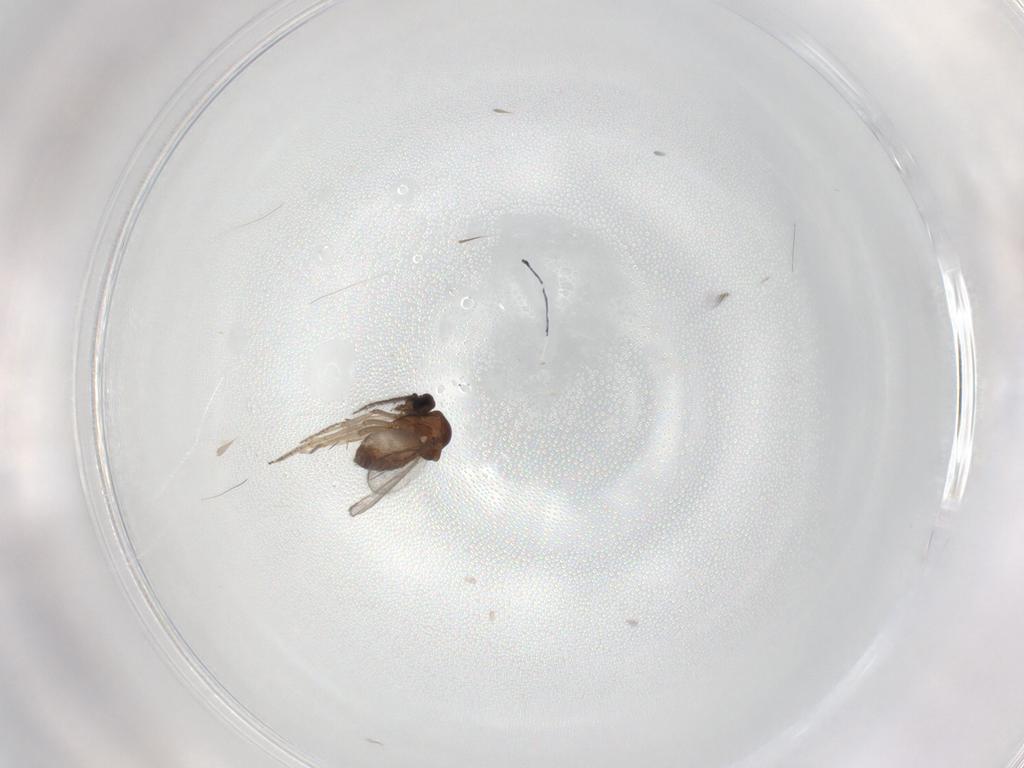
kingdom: Animalia
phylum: Arthropoda
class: Insecta
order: Diptera
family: Ceratopogonidae
